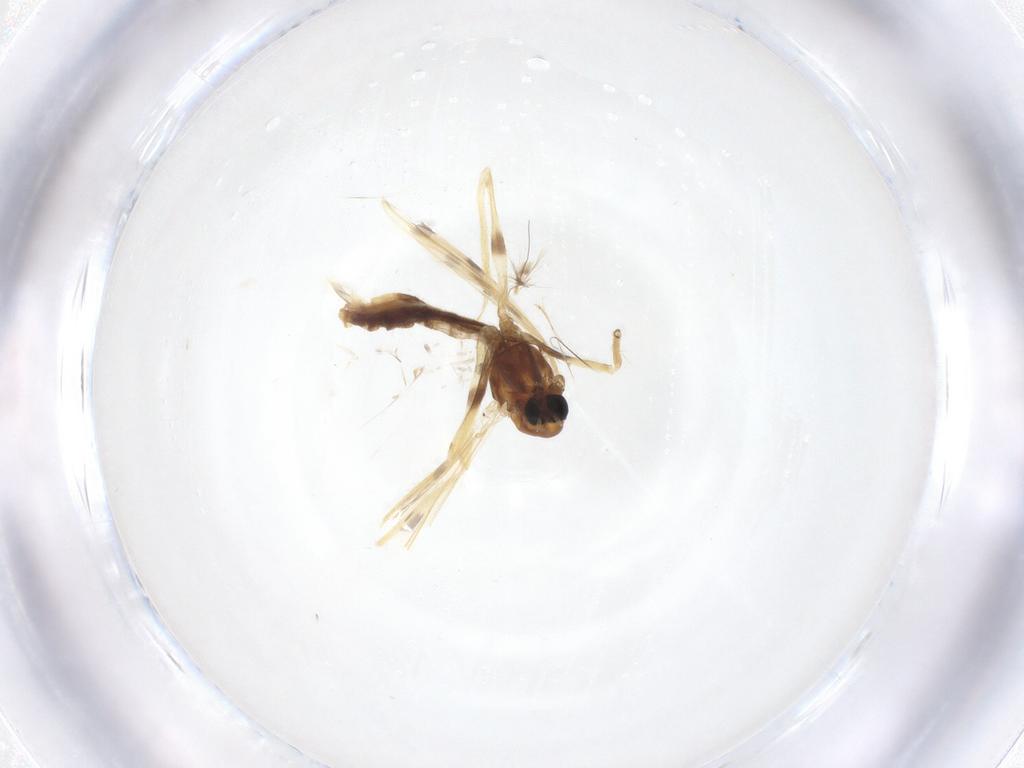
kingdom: Animalia
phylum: Arthropoda
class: Insecta
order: Diptera
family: Chironomidae
